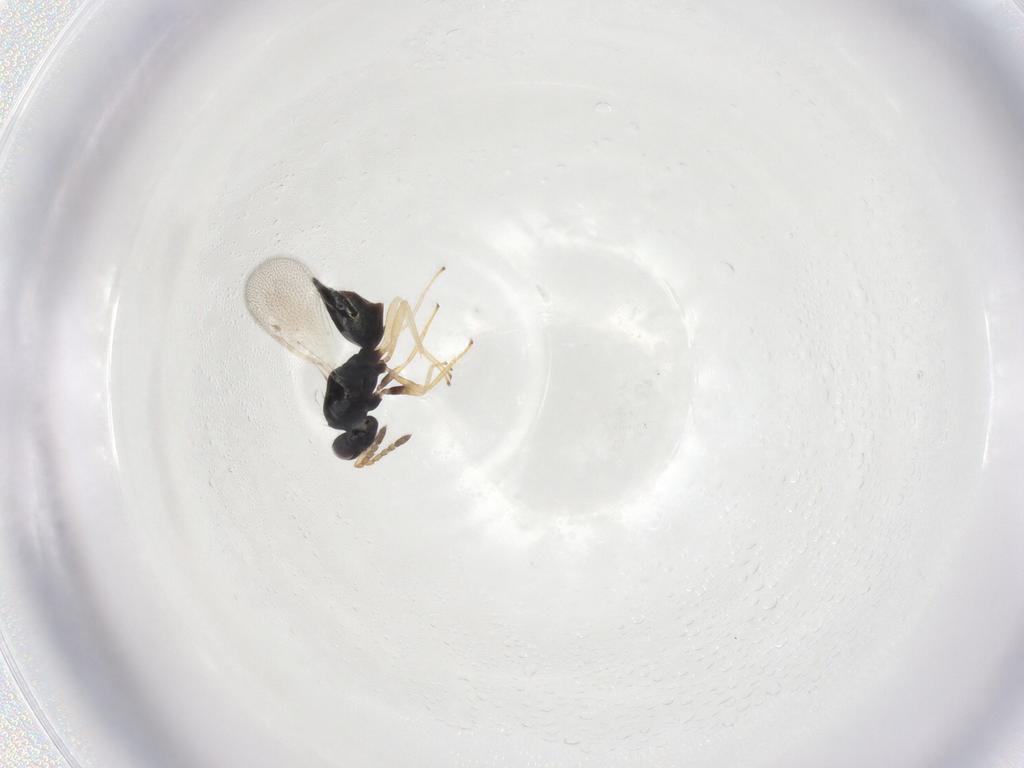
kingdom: Animalia
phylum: Arthropoda
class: Insecta
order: Hymenoptera
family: Eulophidae
